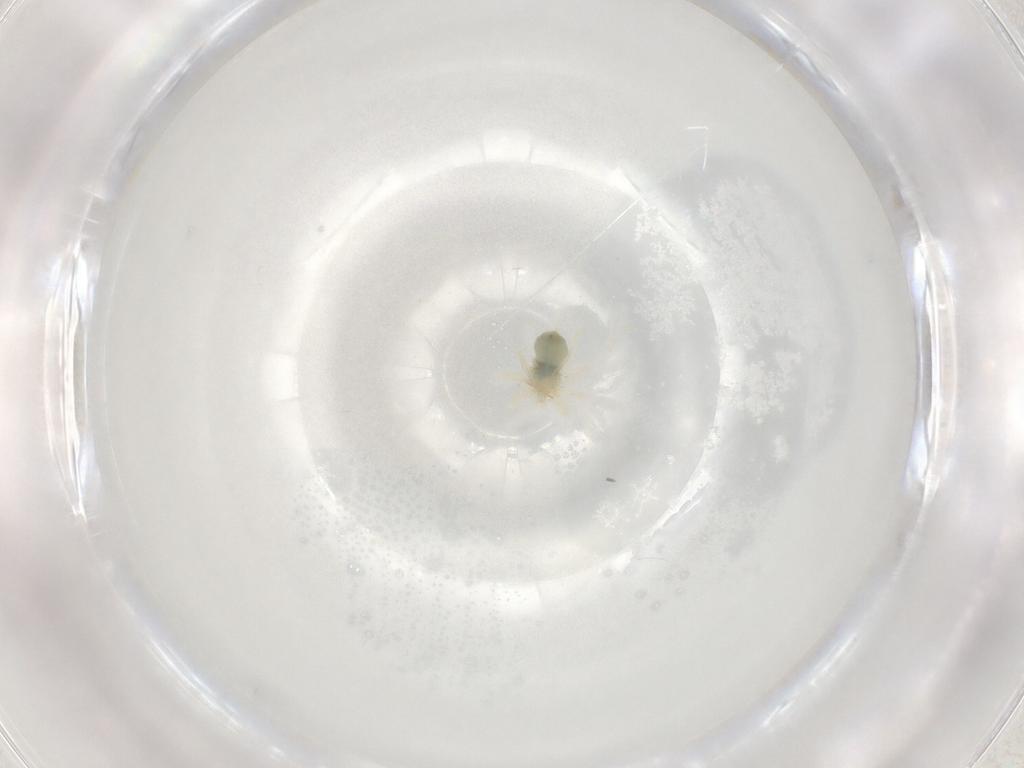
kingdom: Animalia
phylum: Arthropoda
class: Arachnida
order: Trombidiformes
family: Anystidae
